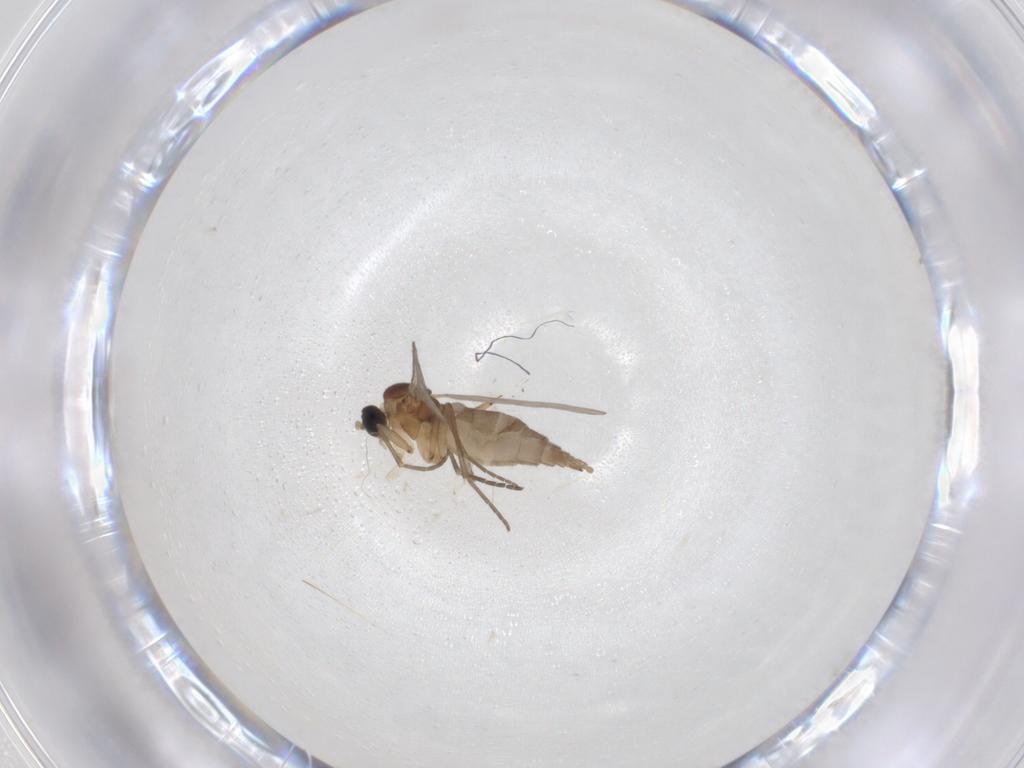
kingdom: Animalia
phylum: Arthropoda
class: Insecta
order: Diptera
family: Sciaridae
